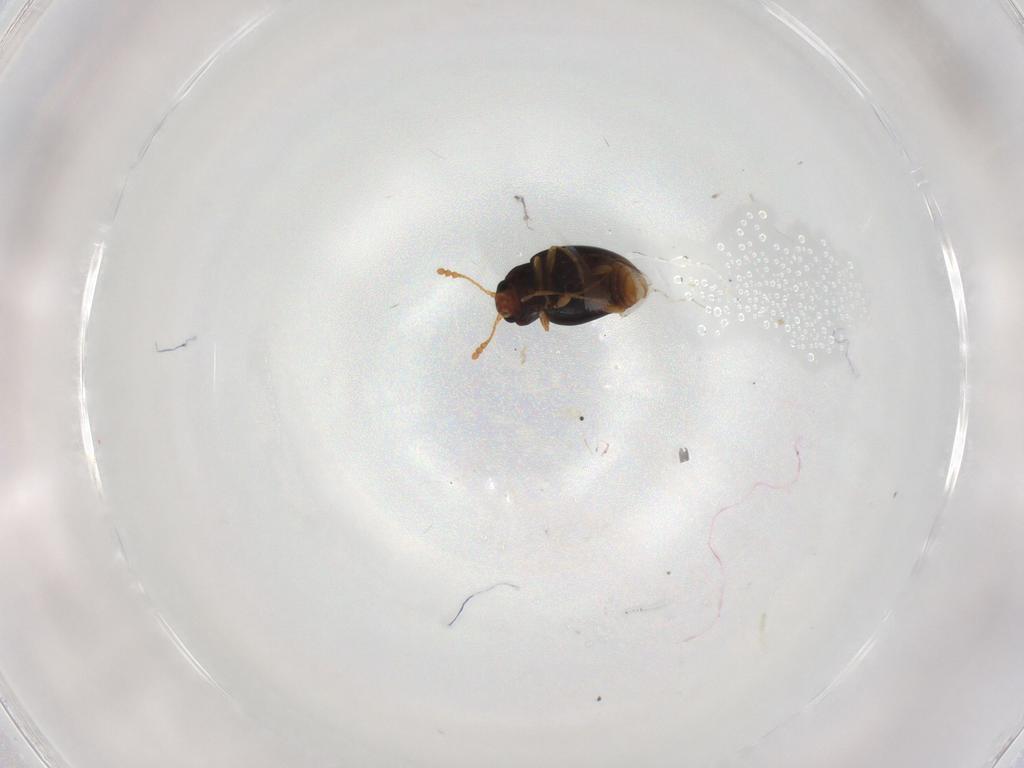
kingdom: Animalia
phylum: Arthropoda
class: Insecta
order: Coleoptera
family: Erotylidae
